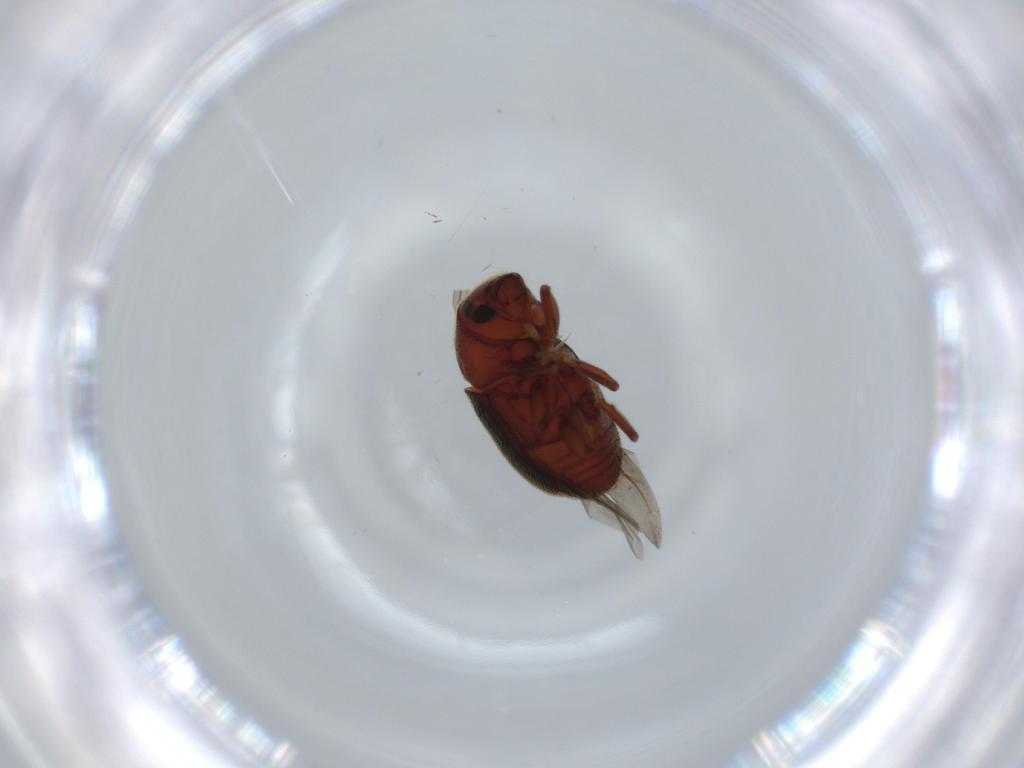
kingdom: Animalia
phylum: Arthropoda
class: Insecta
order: Coleoptera
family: Curculionidae
